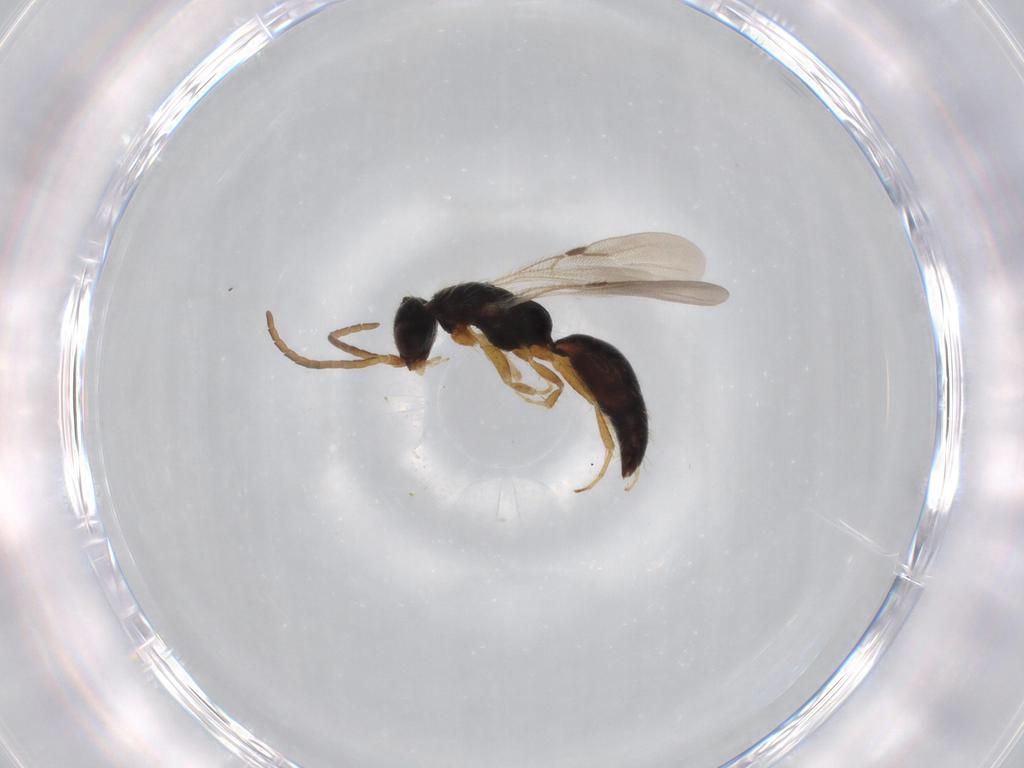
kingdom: Animalia
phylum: Arthropoda
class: Insecta
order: Hymenoptera
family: Bethylidae
